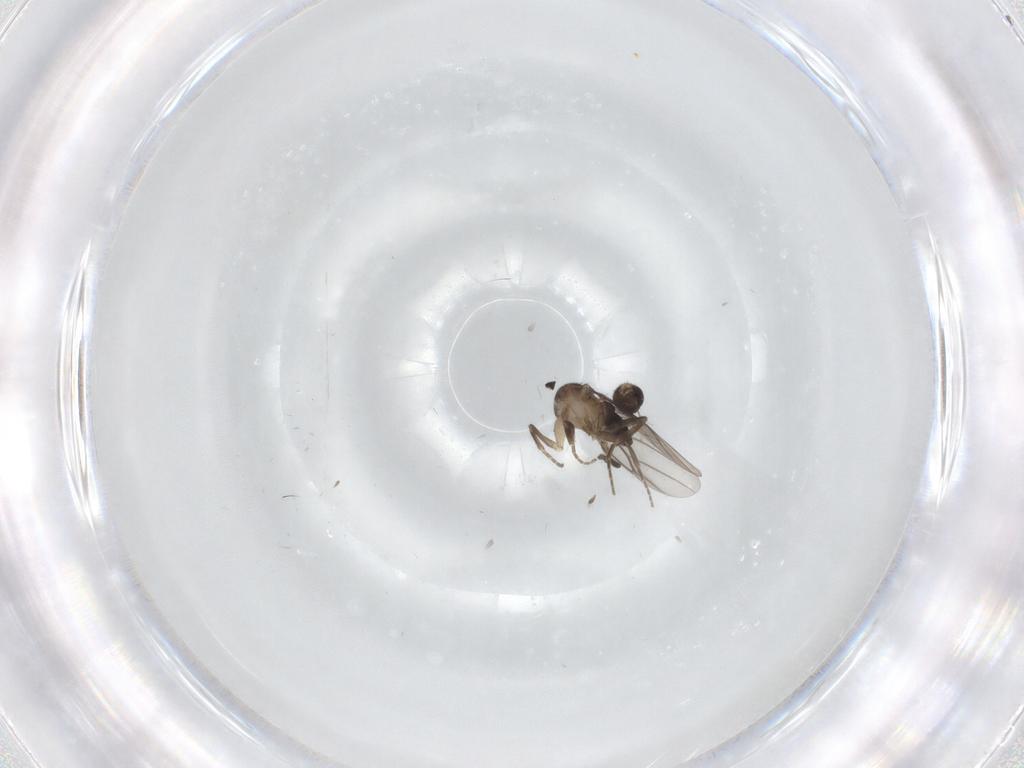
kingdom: Animalia
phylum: Arthropoda
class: Insecta
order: Diptera
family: Phoridae
